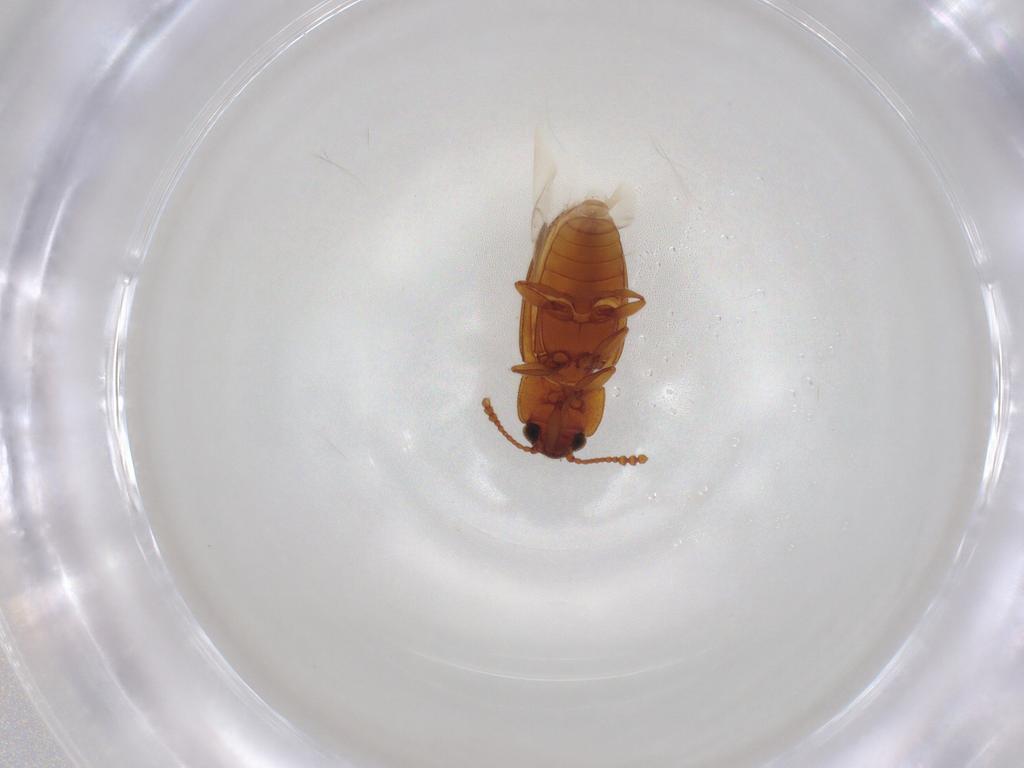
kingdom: Animalia
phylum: Arthropoda
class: Insecta
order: Coleoptera
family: Erotylidae
